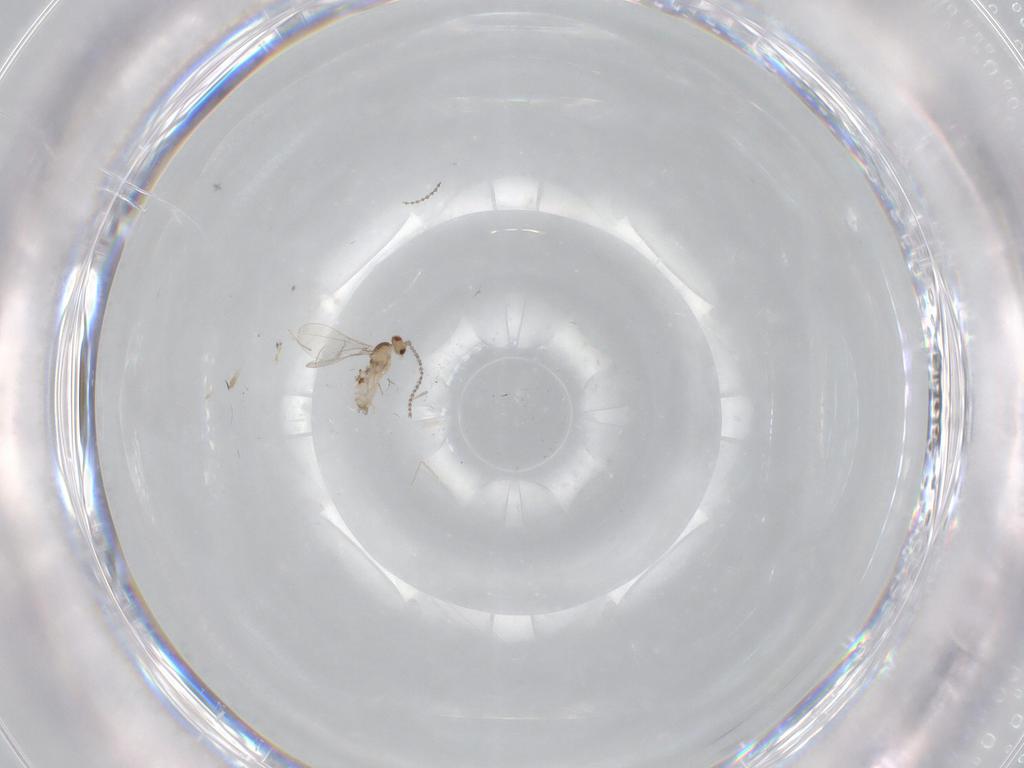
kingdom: Animalia
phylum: Arthropoda
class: Insecta
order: Diptera
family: Cecidomyiidae
